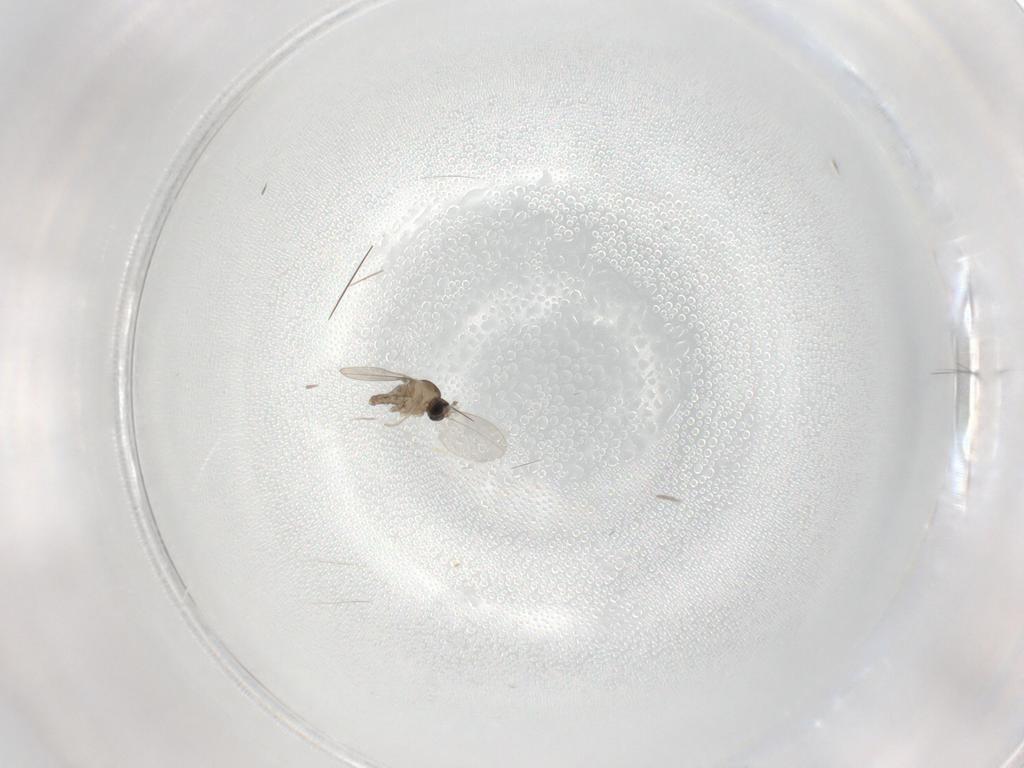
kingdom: Animalia
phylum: Arthropoda
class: Insecta
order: Diptera
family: Cecidomyiidae
